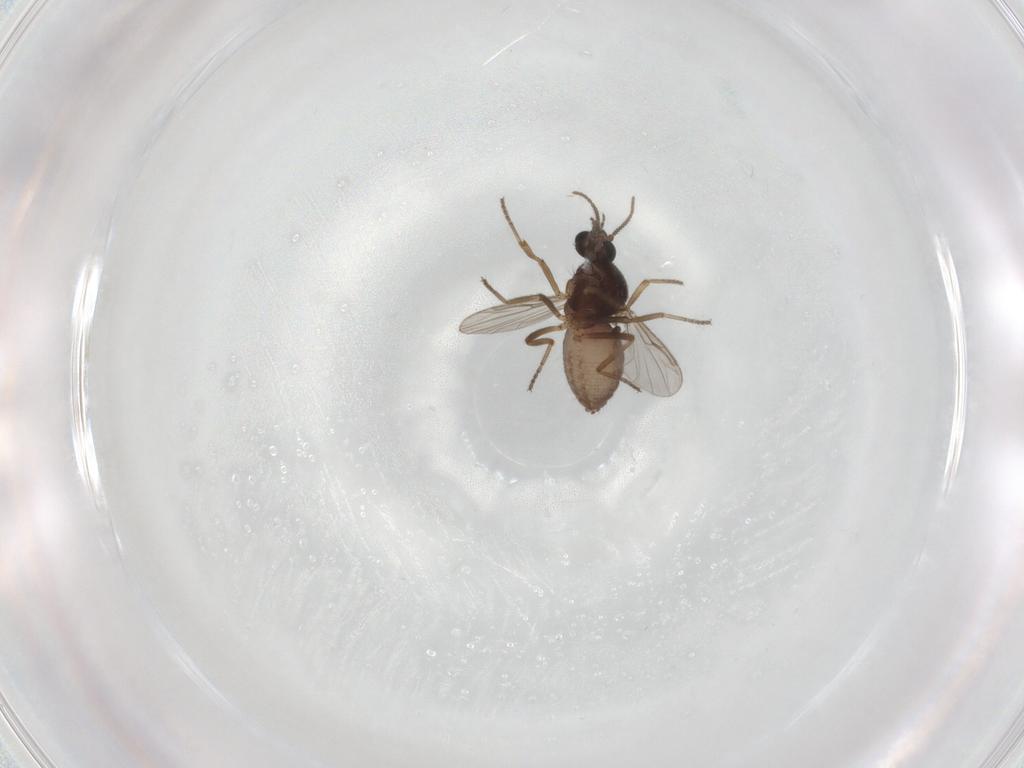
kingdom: Animalia
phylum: Arthropoda
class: Insecta
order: Diptera
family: Ceratopogonidae
